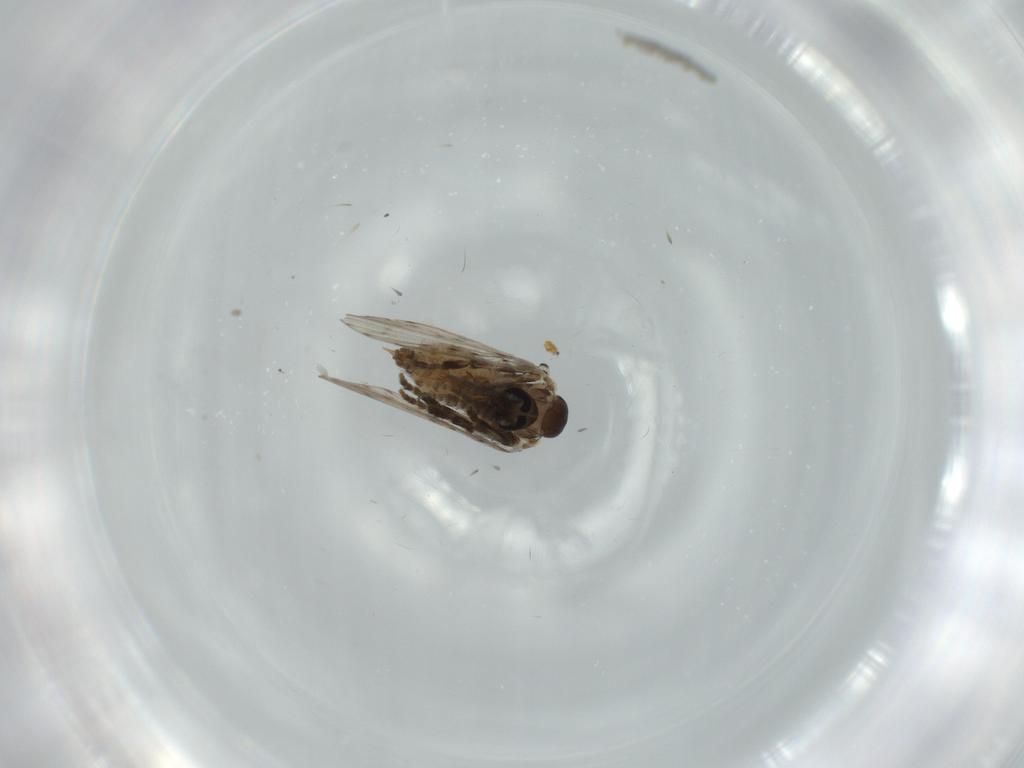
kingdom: Animalia
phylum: Arthropoda
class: Insecta
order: Diptera
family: Psychodidae
